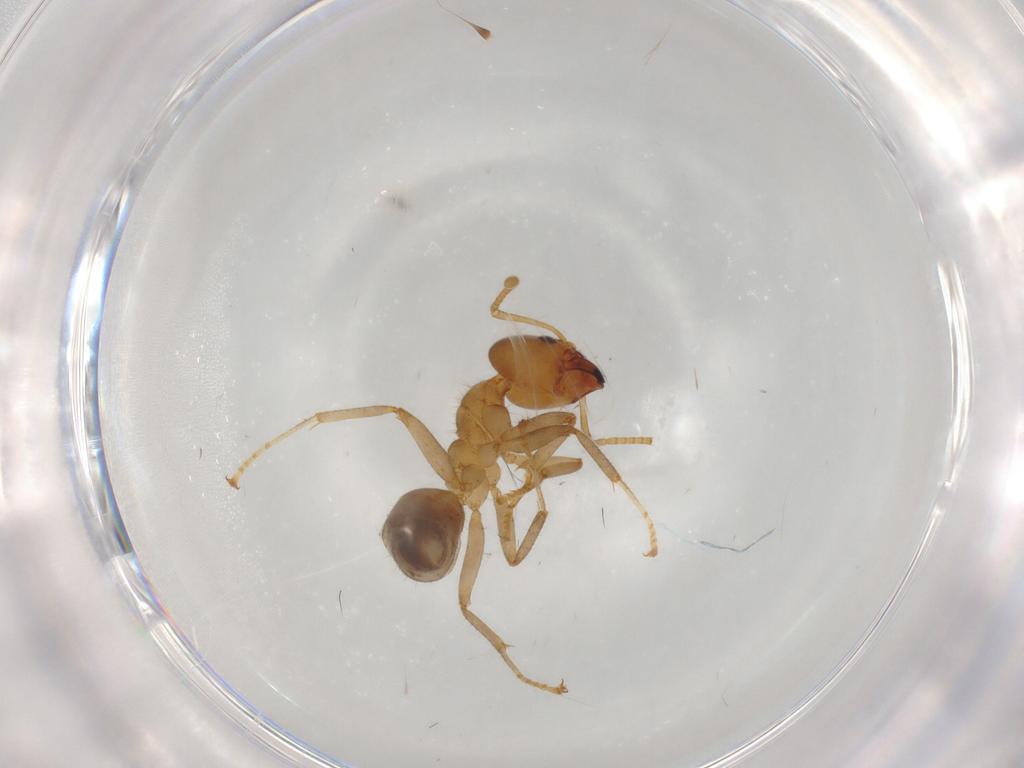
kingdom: Animalia
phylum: Arthropoda
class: Insecta
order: Hymenoptera
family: Formicidae
